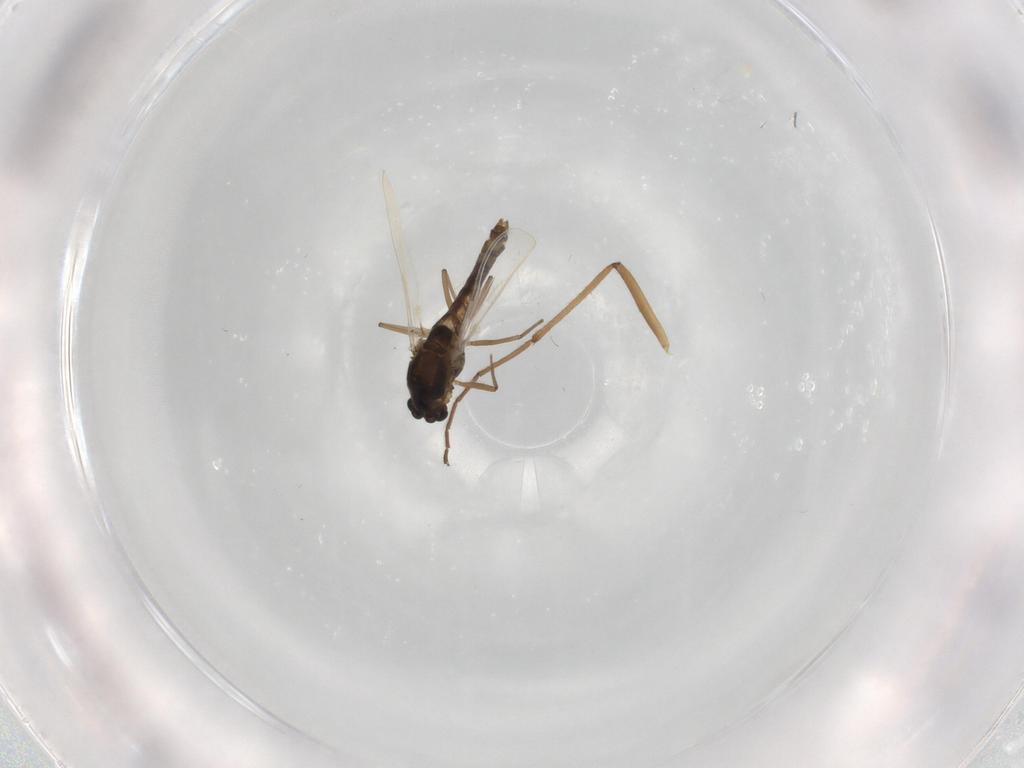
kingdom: Animalia
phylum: Arthropoda
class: Insecta
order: Diptera
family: Chironomidae
